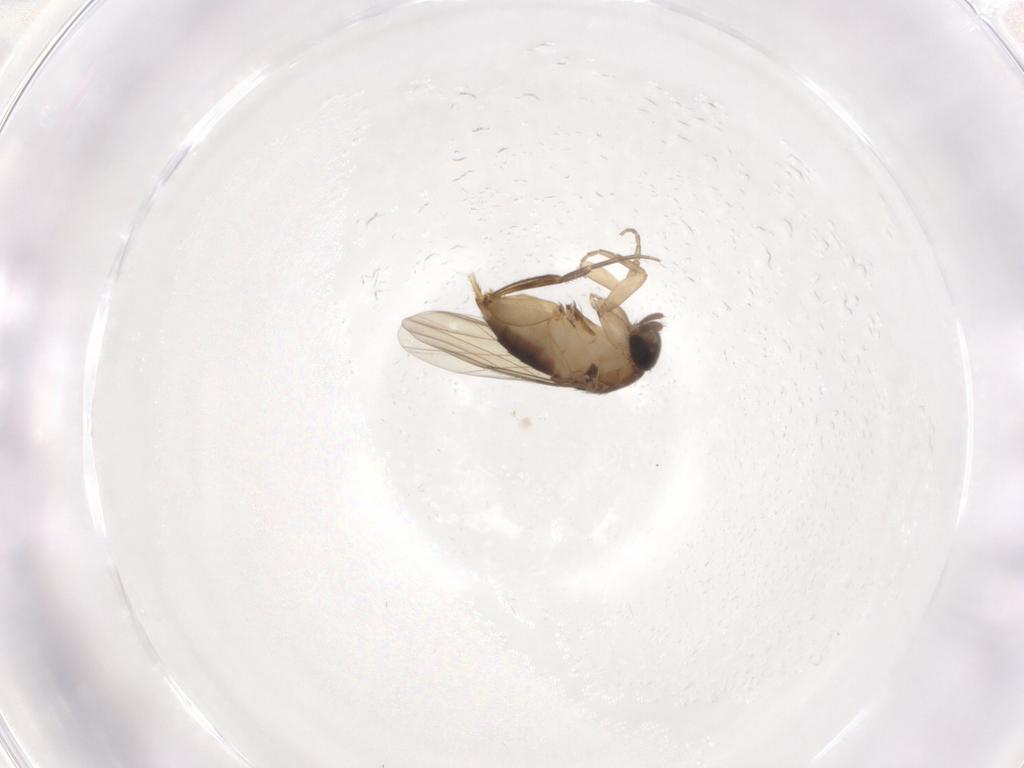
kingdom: Animalia
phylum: Arthropoda
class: Insecta
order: Diptera
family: Phoridae
